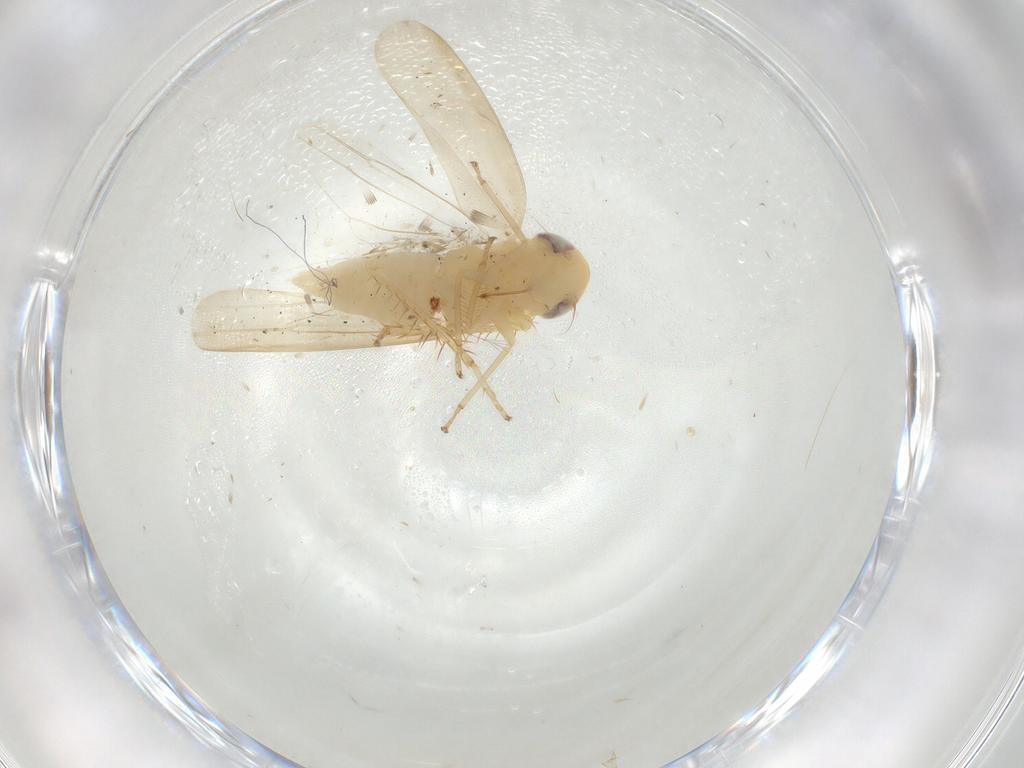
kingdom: Animalia
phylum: Arthropoda
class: Insecta
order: Hemiptera
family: Cicadellidae
